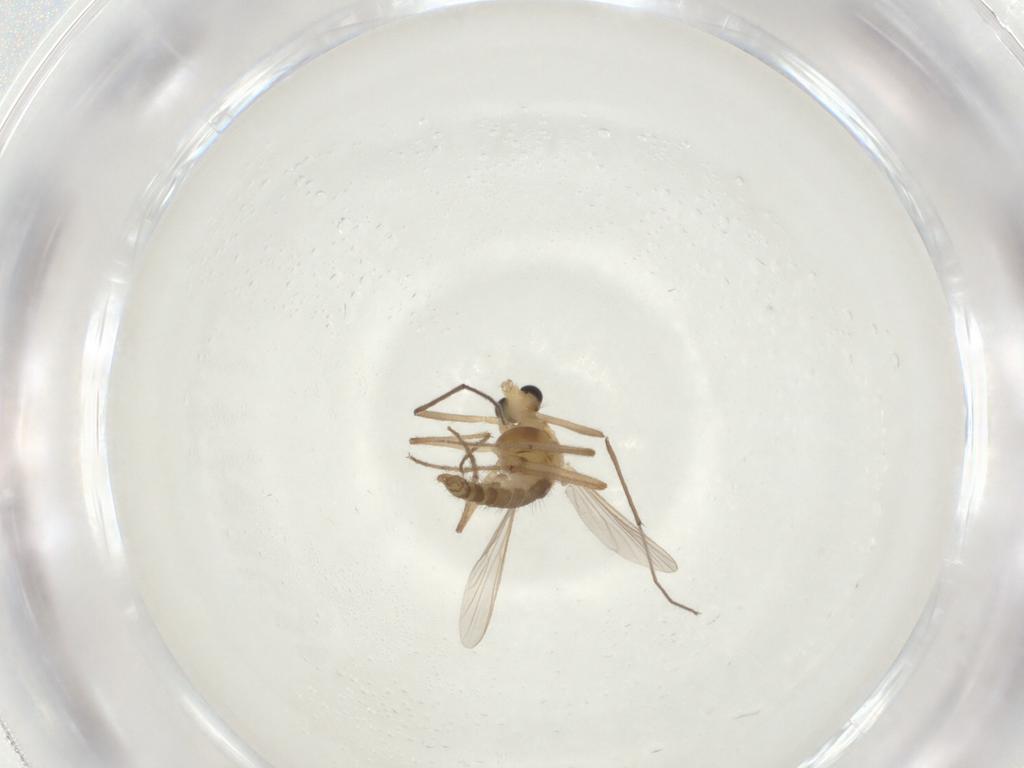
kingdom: Animalia
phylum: Arthropoda
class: Insecta
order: Diptera
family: Chironomidae
